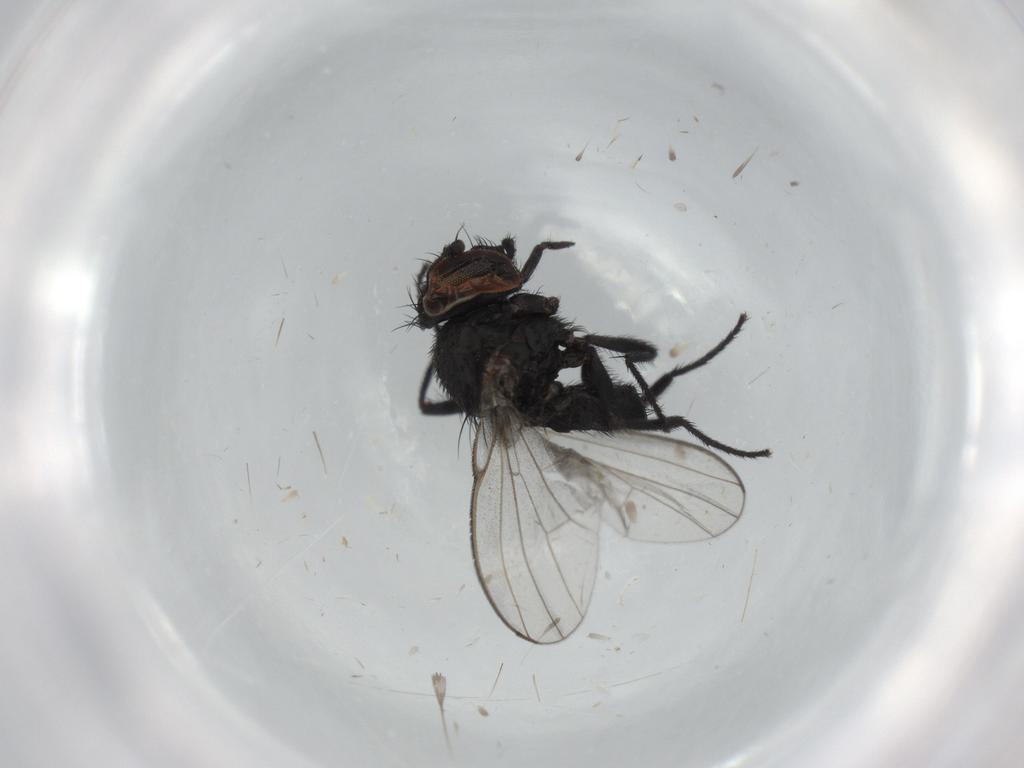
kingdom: Animalia
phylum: Arthropoda
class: Insecta
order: Diptera
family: Milichiidae
